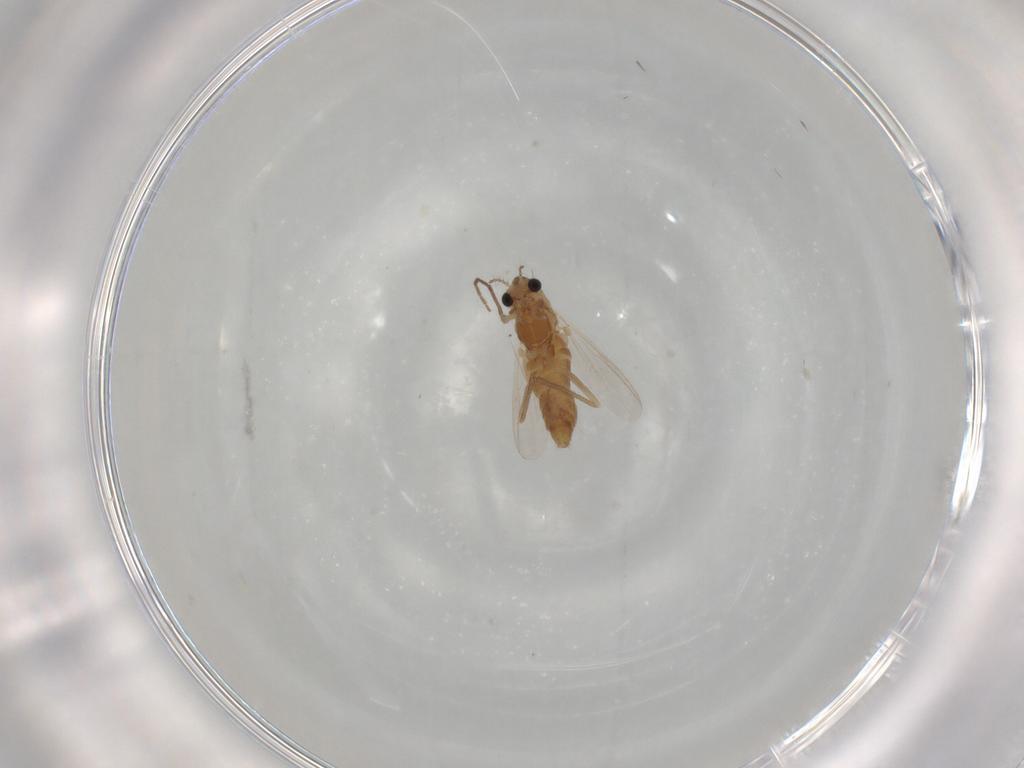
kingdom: Animalia
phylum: Arthropoda
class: Insecta
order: Diptera
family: Chironomidae
